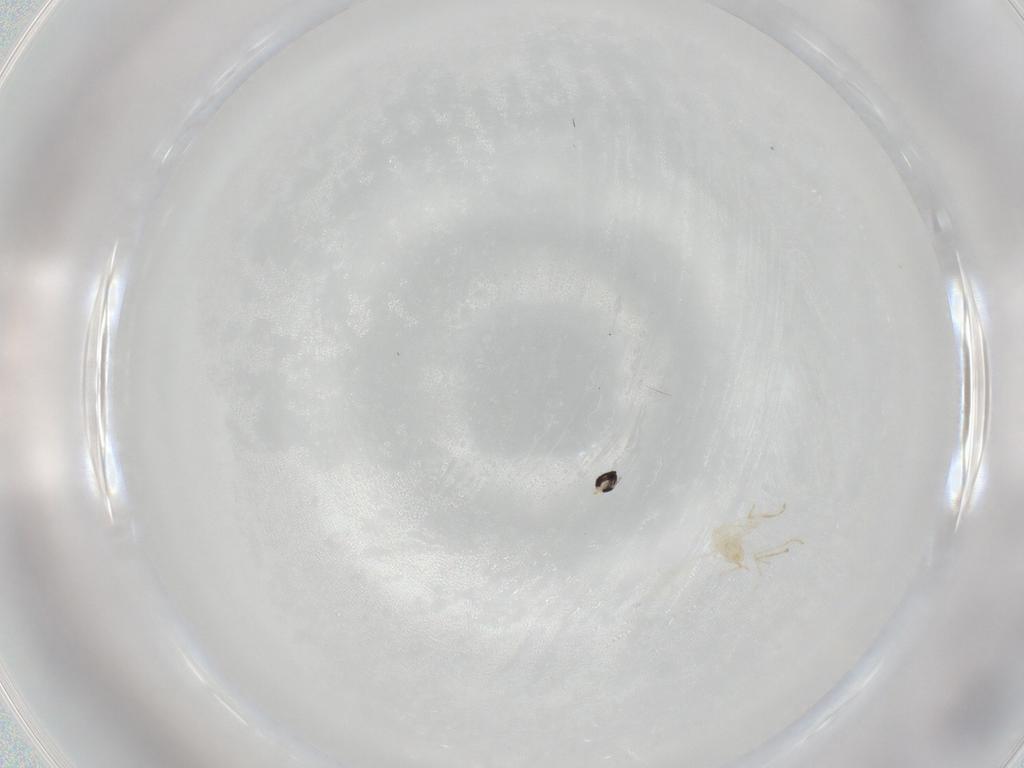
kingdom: Animalia
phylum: Arthropoda
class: Insecta
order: Diptera
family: Cecidomyiidae
